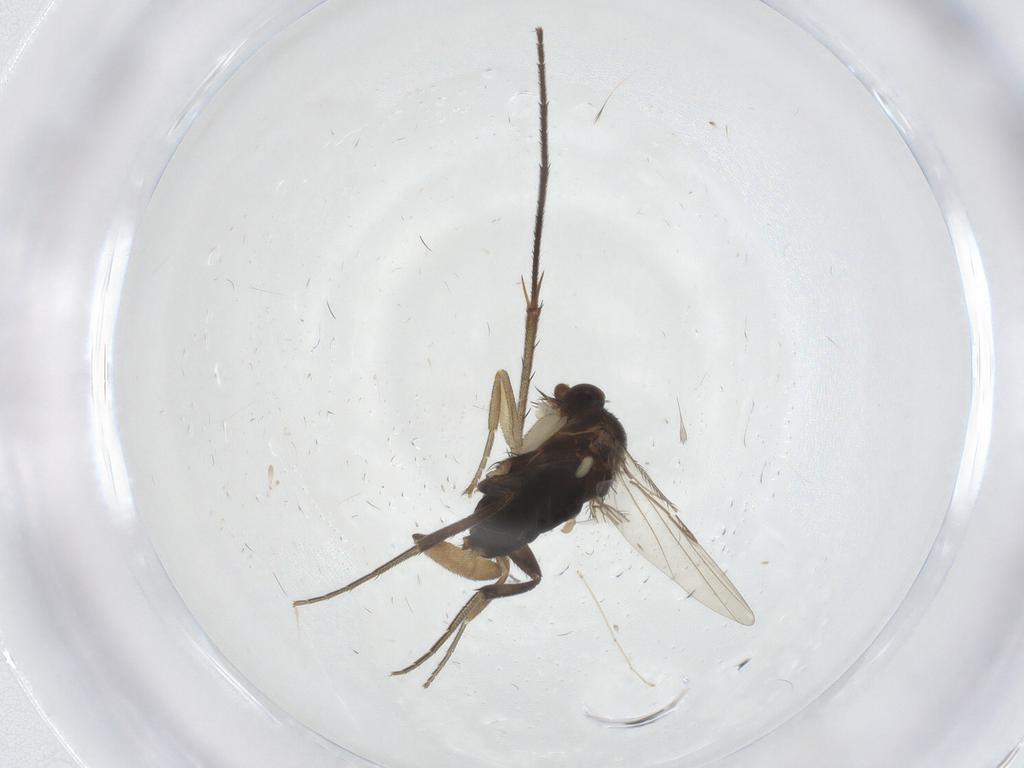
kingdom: Animalia
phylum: Arthropoda
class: Insecta
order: Diptera
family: Cecidomyiidae
